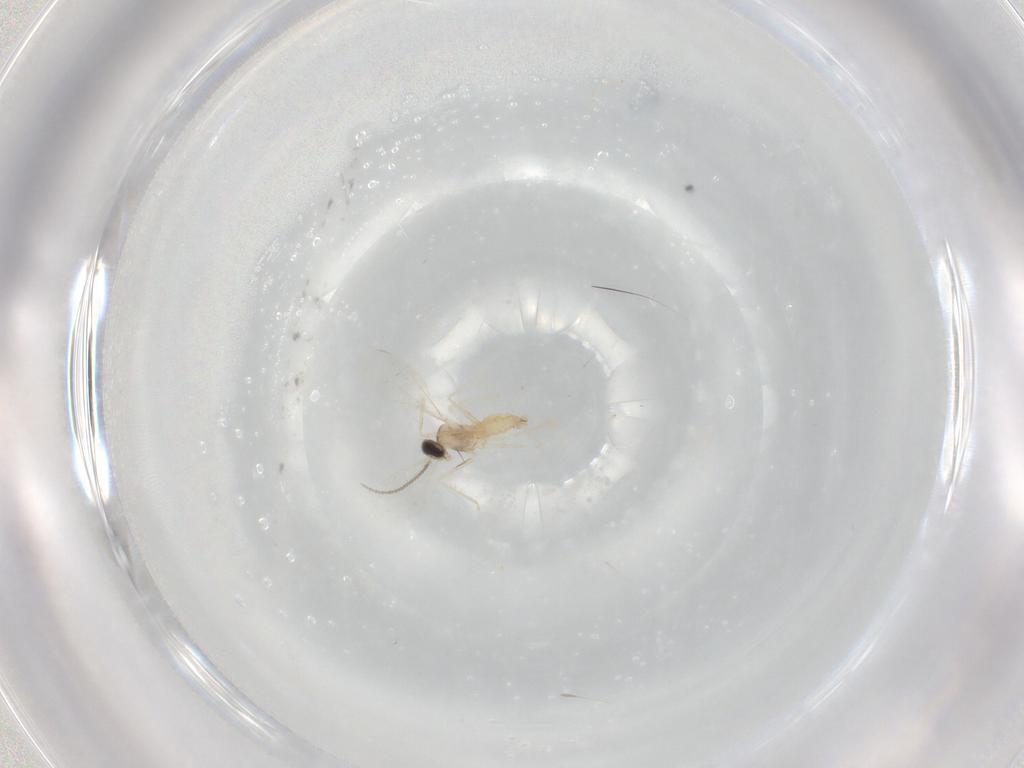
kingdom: Animalia
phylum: Arthropoda
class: Insecta
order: Diptera
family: Cecidomyiidae
